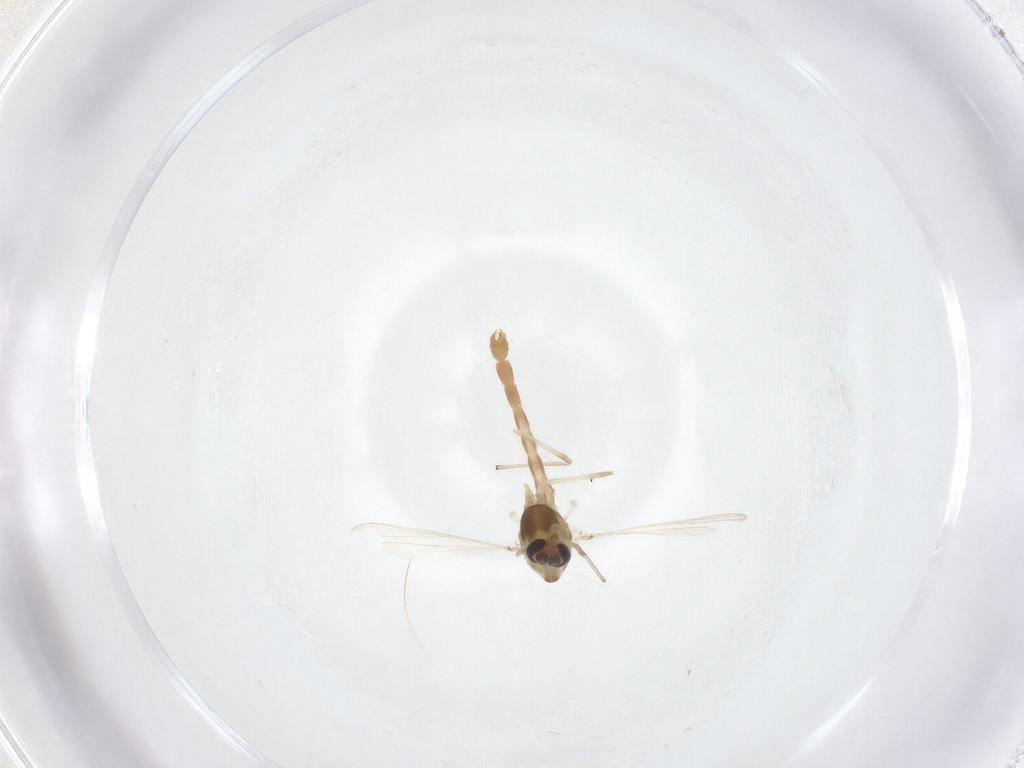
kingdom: Animalia
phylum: Arthropoda
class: Insecta
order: Diptera
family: Chironomidae
